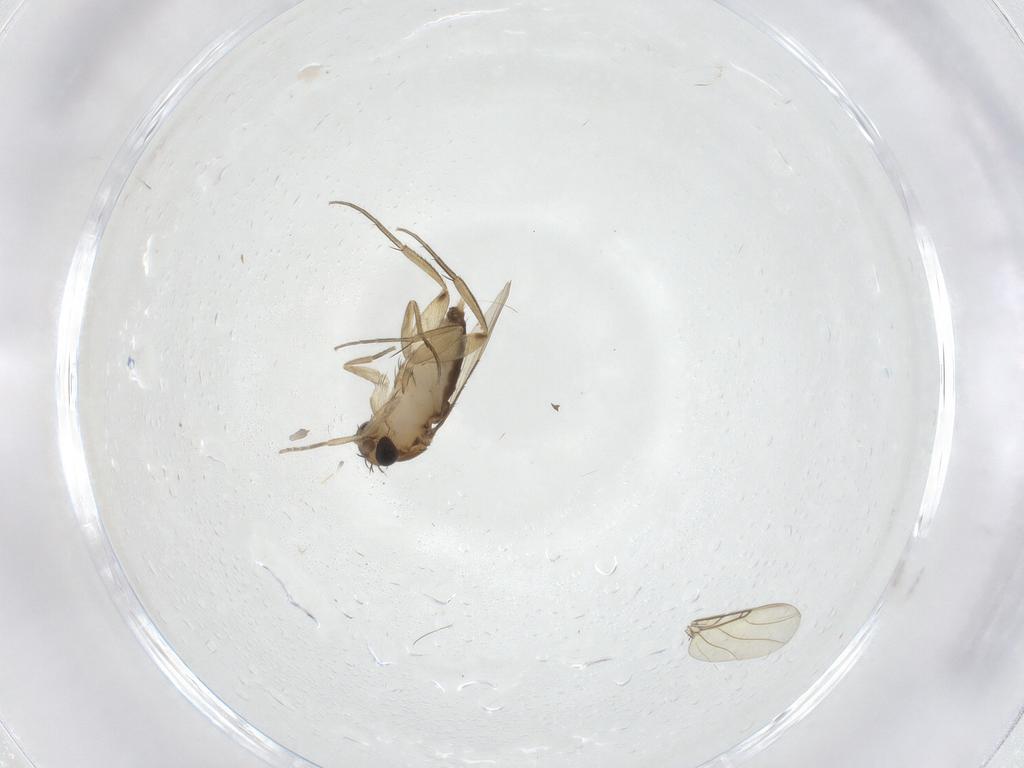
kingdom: Animalia
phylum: Arthropoda
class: Insecta
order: Diptera
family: Phoridae
